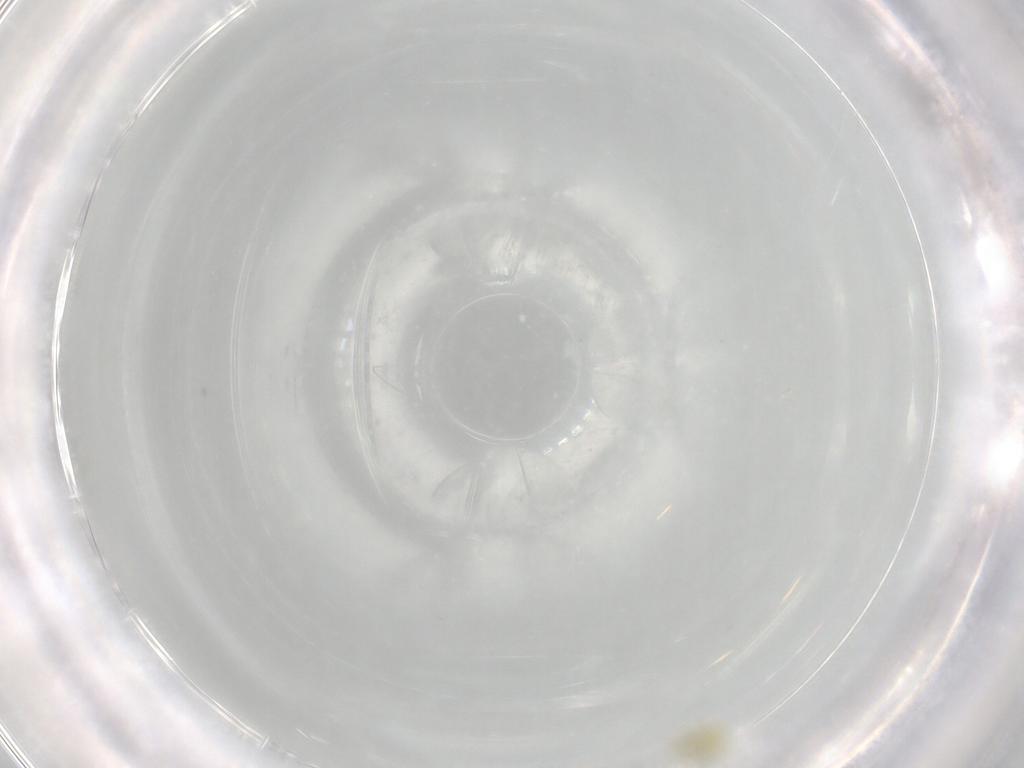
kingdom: Animalia
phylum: Arthropoda
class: Insecta
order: Hemiptera
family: Aleyrodidae
